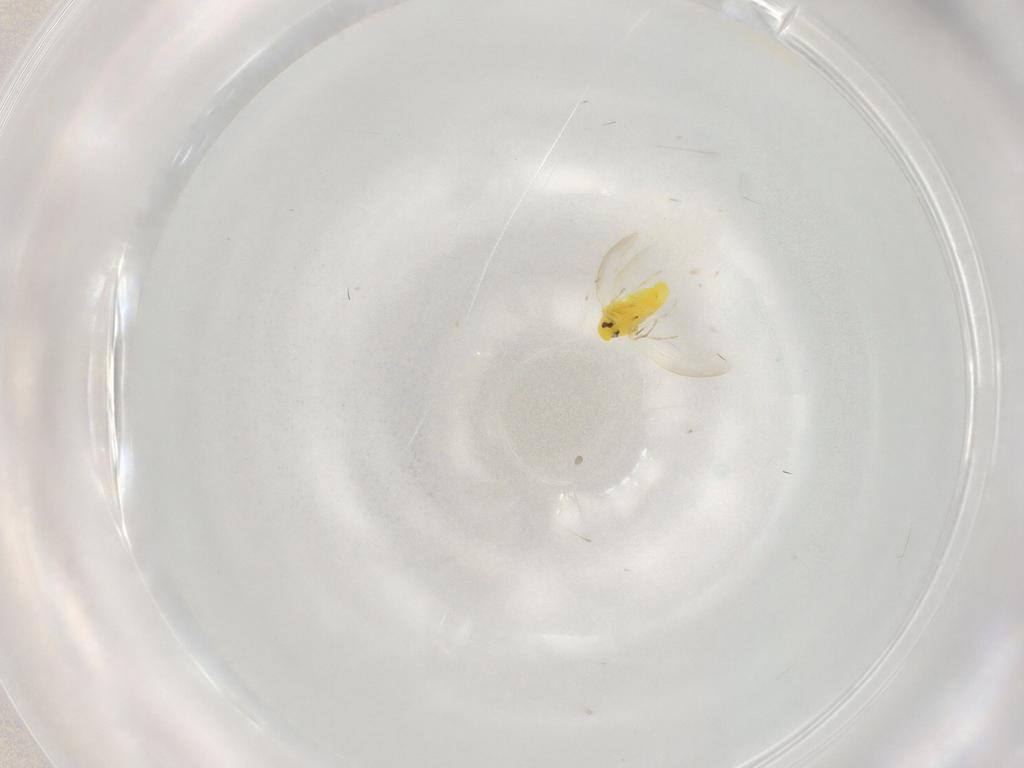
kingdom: Animalia
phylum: Arthropoda
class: Insecta
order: Hemiptera
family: Aleyrodidae
